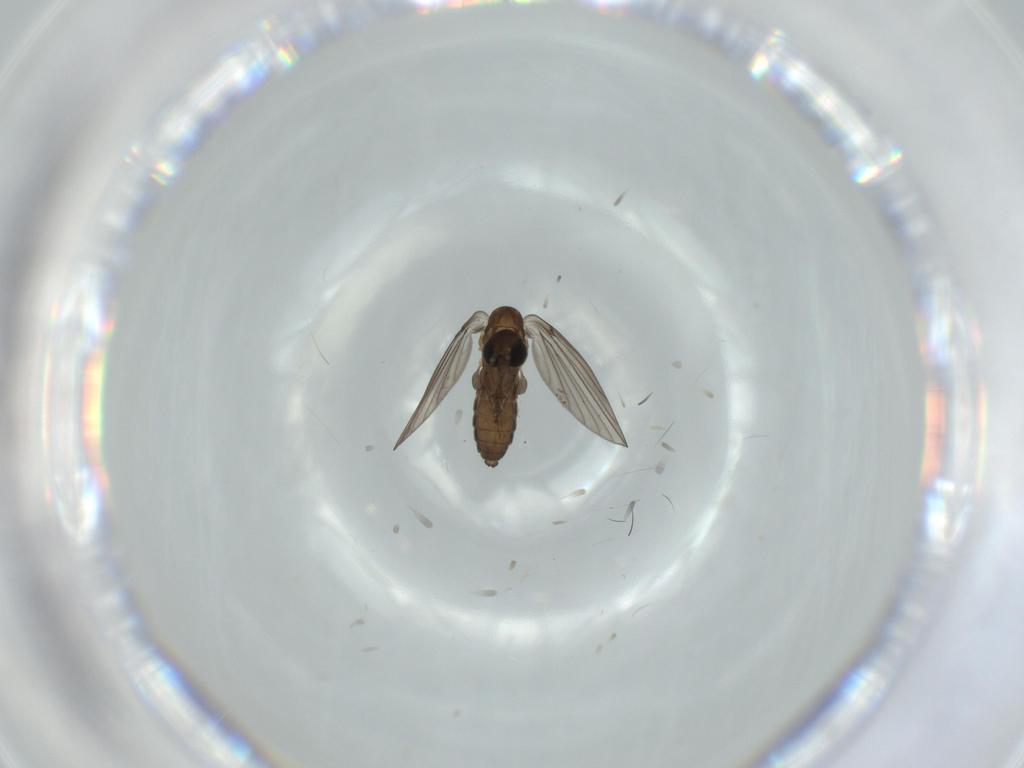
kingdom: Animalia
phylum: Arthropoda
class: Insecta
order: Diptera
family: Psychodidae
